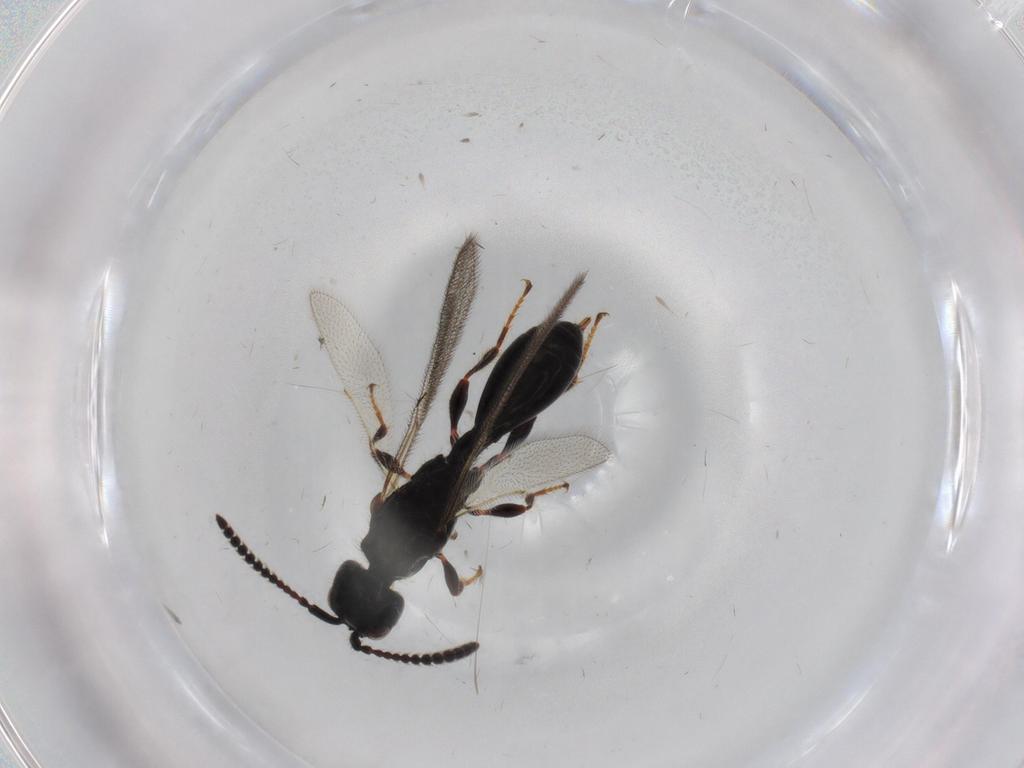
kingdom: Animalia
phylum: Arthropoda
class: Insecta
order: Hymenoptera
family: Diapriidae
